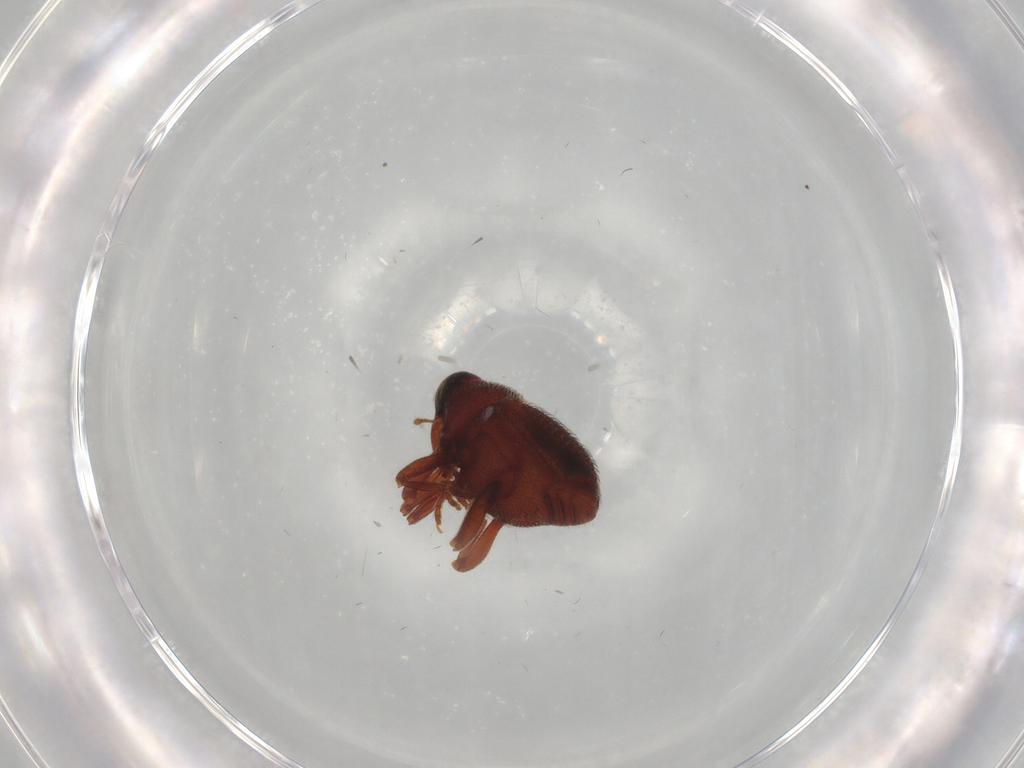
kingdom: Animalia
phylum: Arthropoda
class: Insecta
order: Coleoptera
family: Curculionidae
